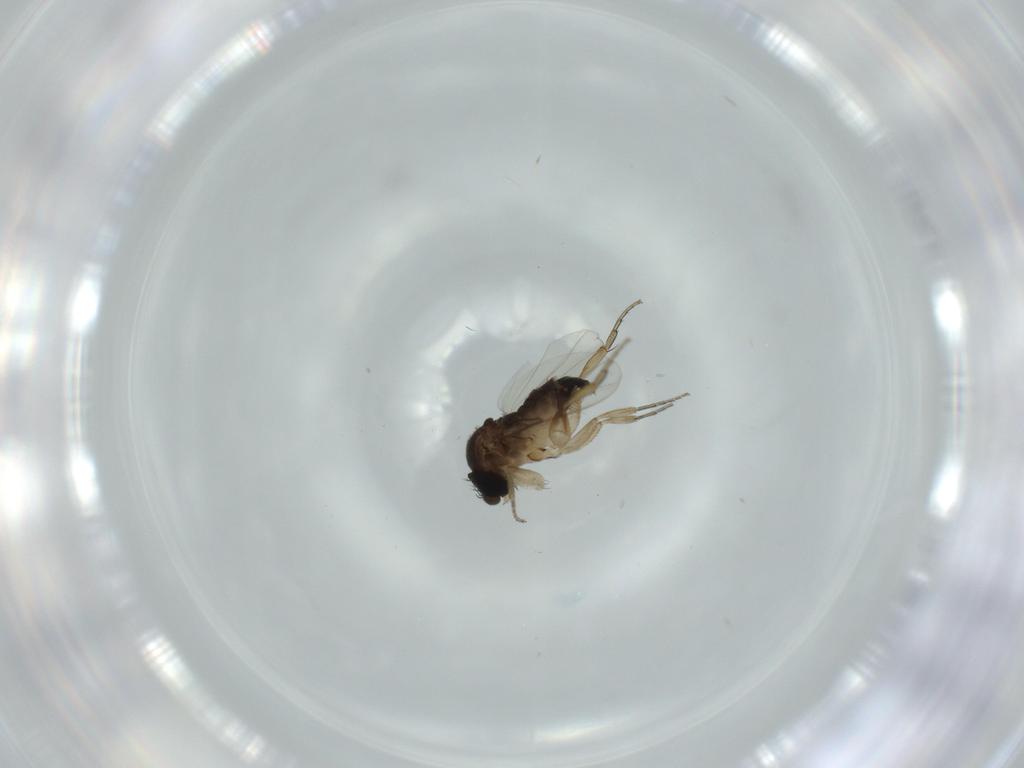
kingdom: Animalia
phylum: Arthropoda
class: Insecta
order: Diptera
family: Phoridae
